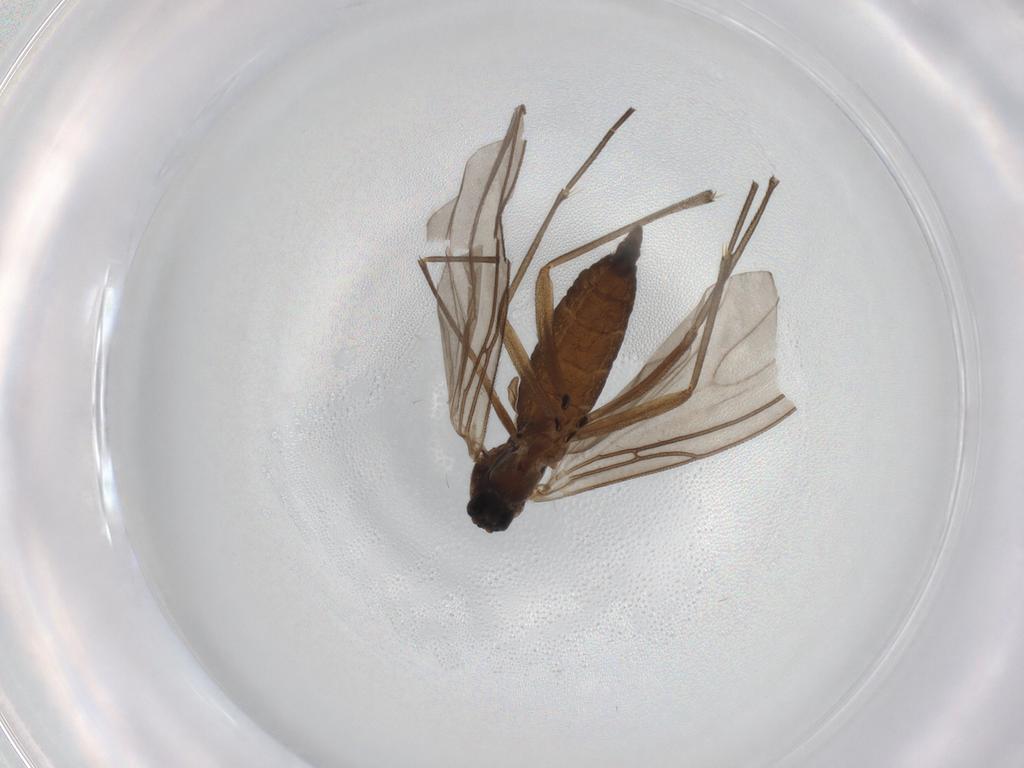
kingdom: Animalia
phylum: Arthropoda
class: Insecta
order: Diptera
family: Sciaridae
